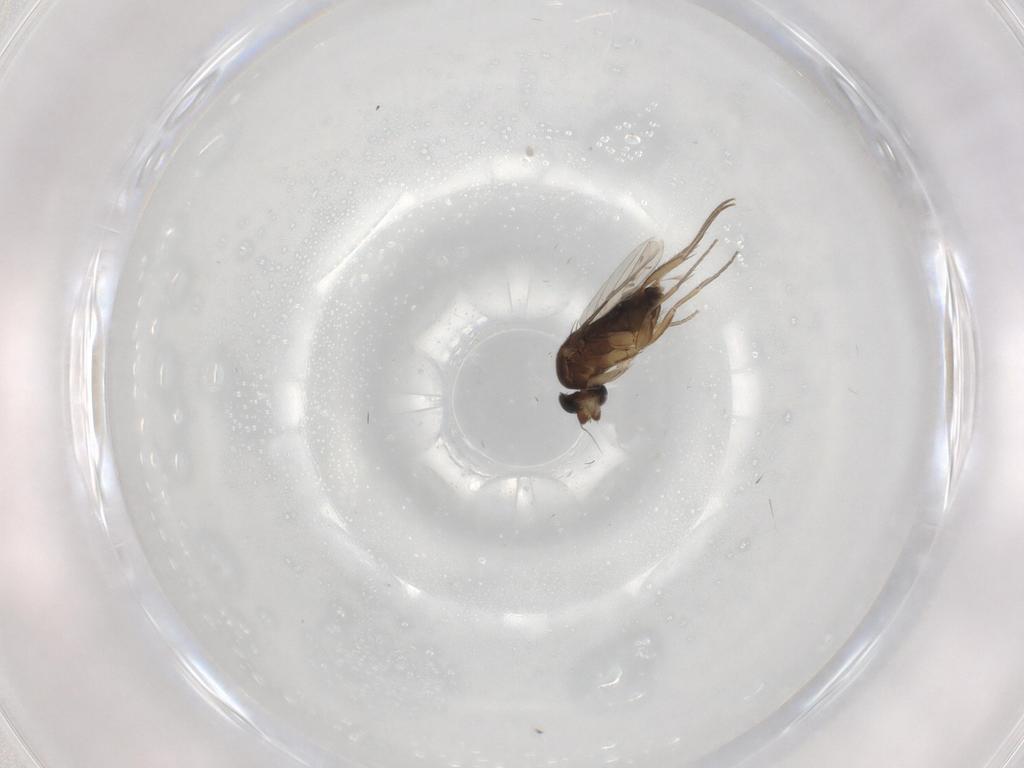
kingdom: Animalia
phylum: Arthropoda
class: Insecta
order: Diptera
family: Phoridae
